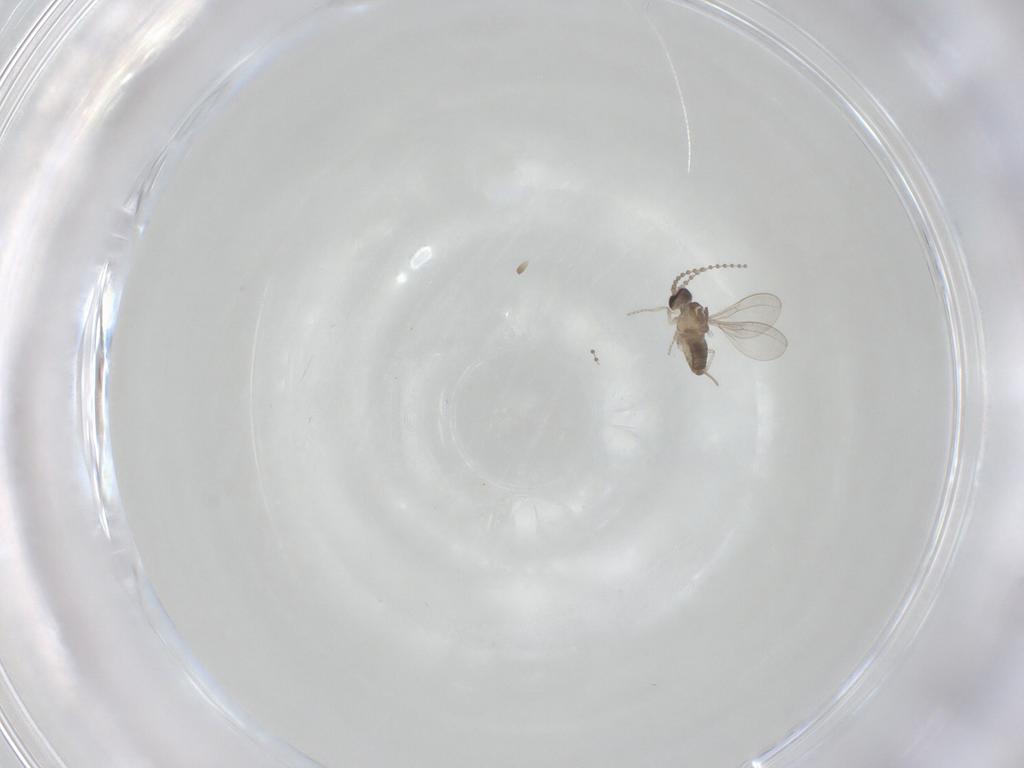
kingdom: Animalia
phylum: Arthropoda
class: Insecta
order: Diptera
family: Cecidomyiidae
